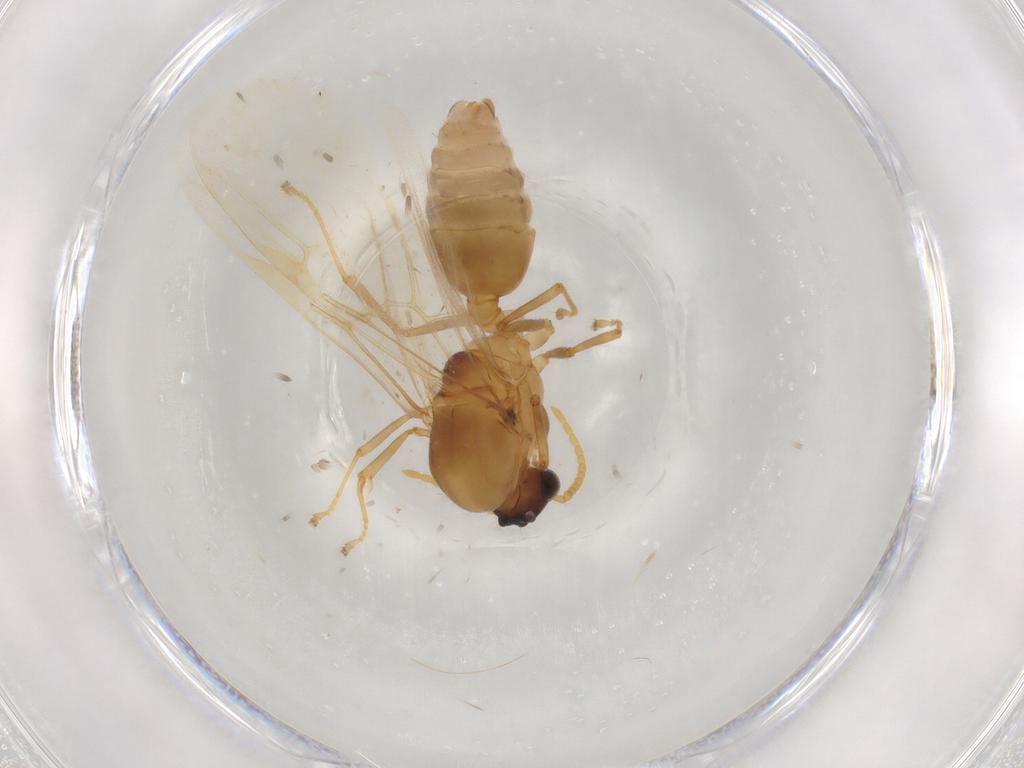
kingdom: Animalia
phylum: Arthropoda
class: Insecta
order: Hymenoptera
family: Formicidae
